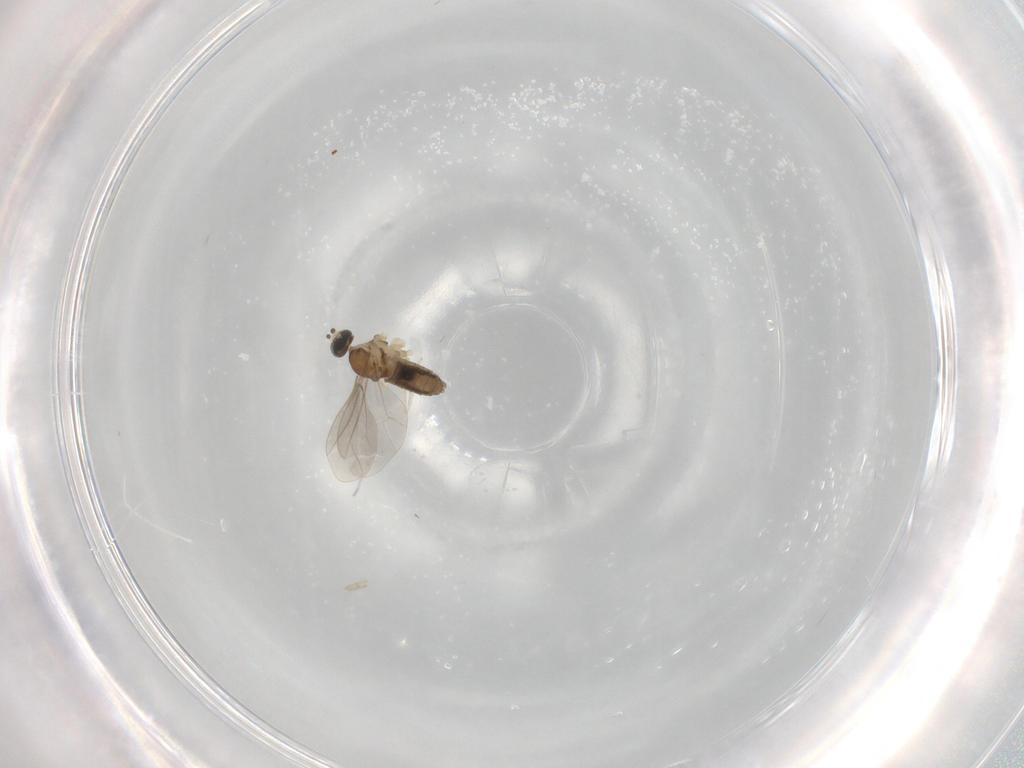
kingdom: Animalia
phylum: Arthropoda
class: Insecta
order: Diptera
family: Cecidomyiidae
